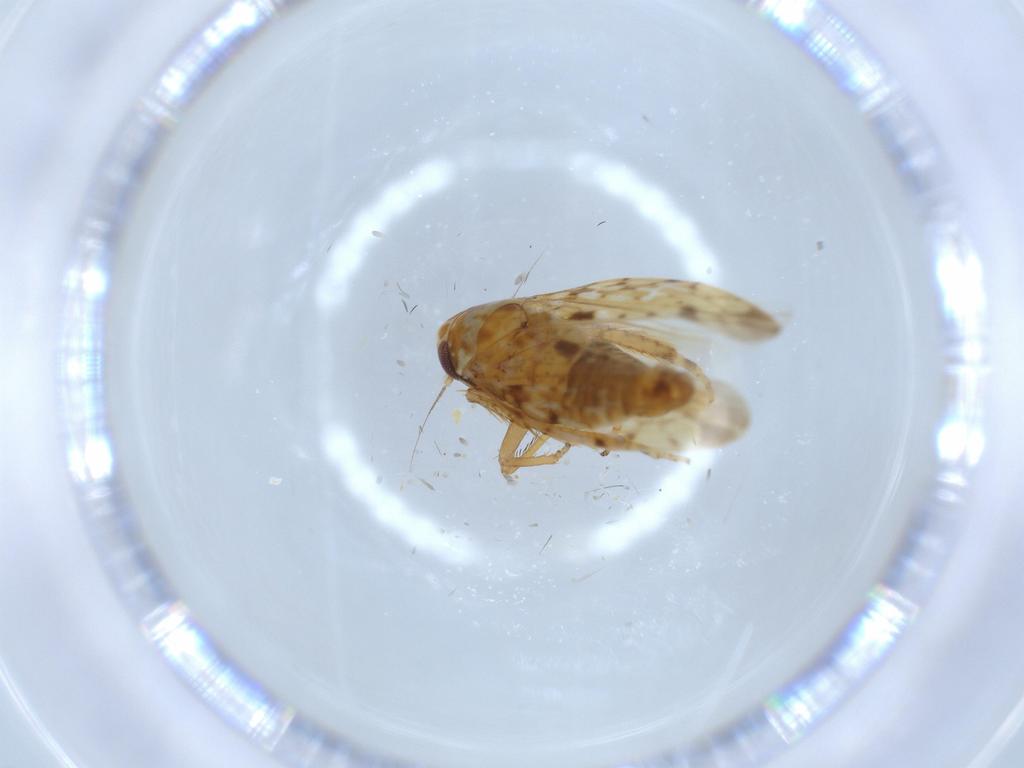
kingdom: Animalia
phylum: Arthropoda
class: Insecta
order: Hemiptera
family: Cicadellidae
